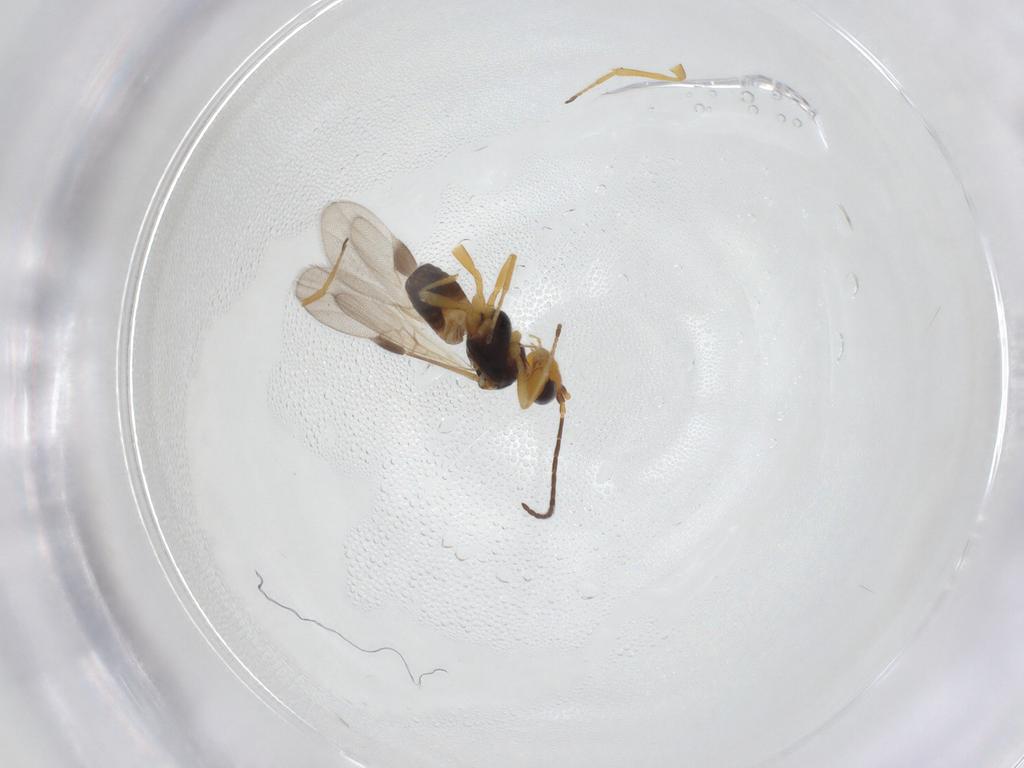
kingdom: Animalia
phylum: Arthropoda
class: Insecta
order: Hymenoptera
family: Braconidae
